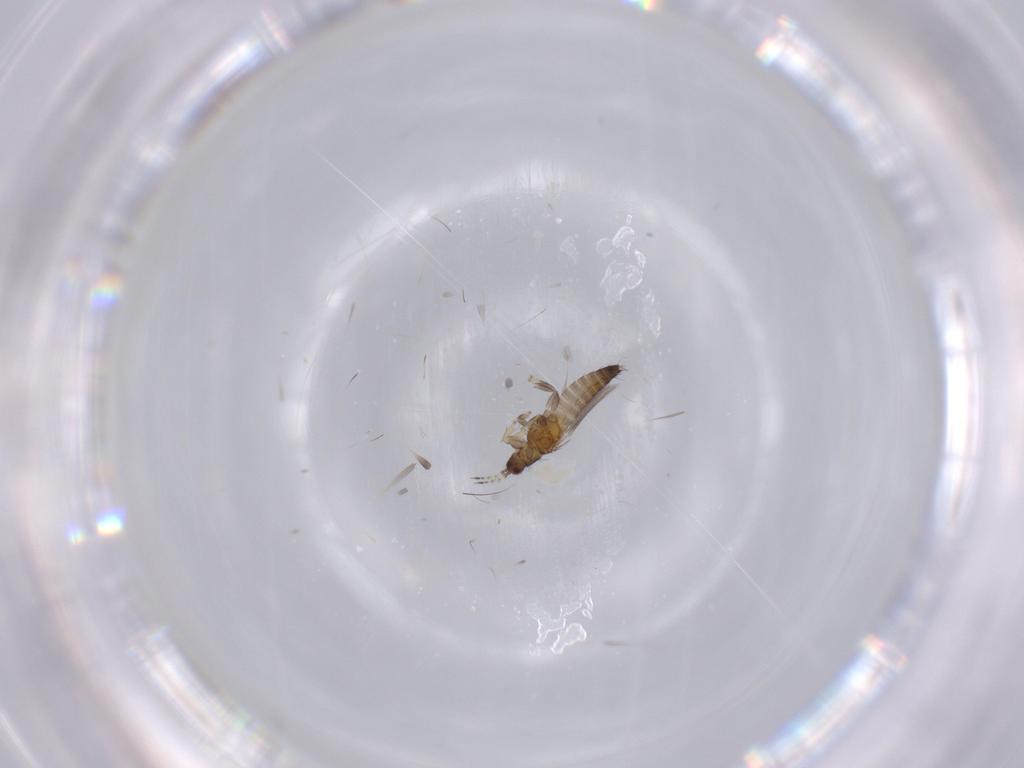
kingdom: Animalia
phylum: Arthropoda
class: Insecta
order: Thysanoptera
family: Thripidae
